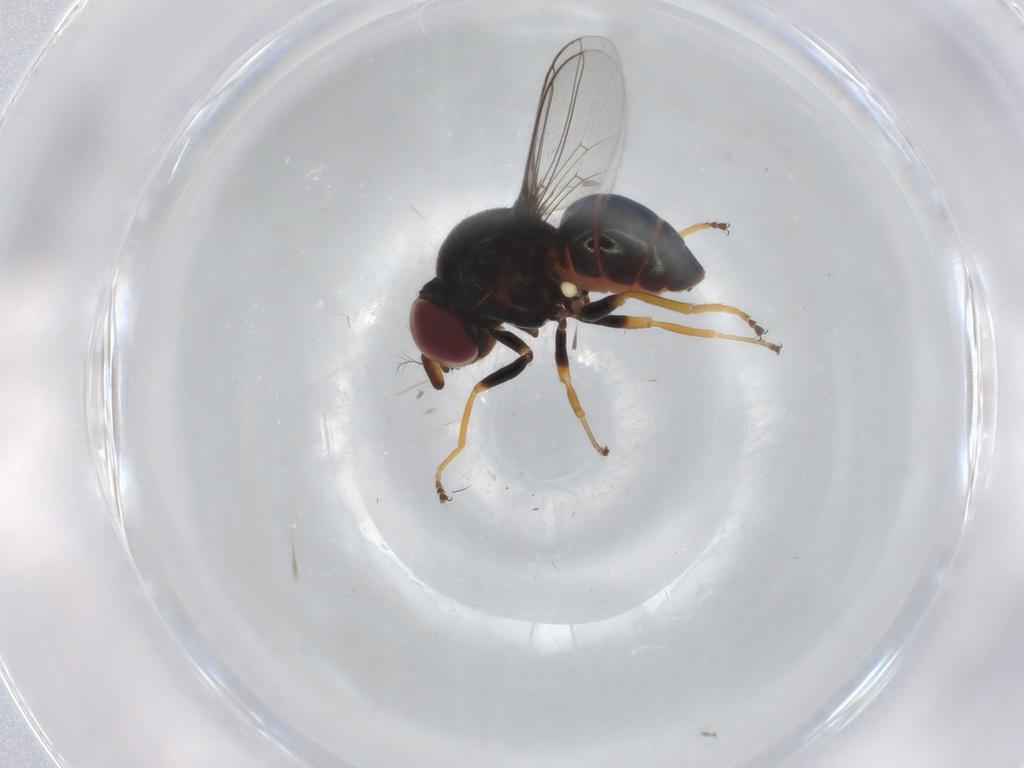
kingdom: Animalia
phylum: Arthropoda
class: Insecta
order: Diptera
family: Chloropidae
